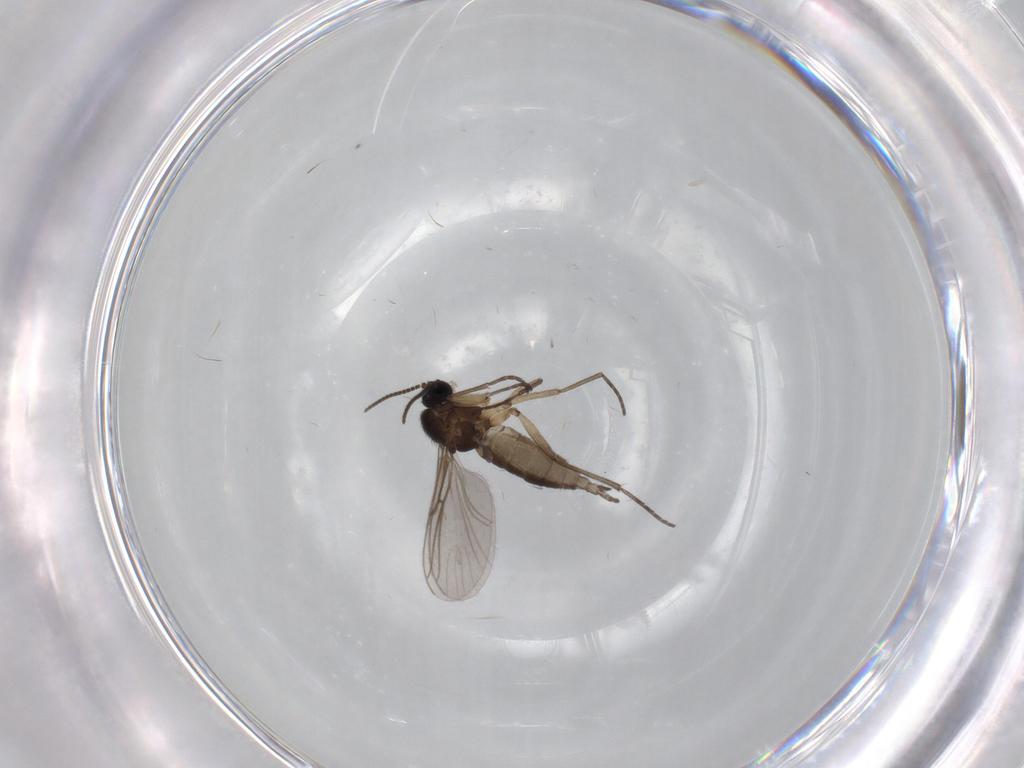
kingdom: Animalia
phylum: Arthropoda
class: Insecta
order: Diptera
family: Sciaridae
